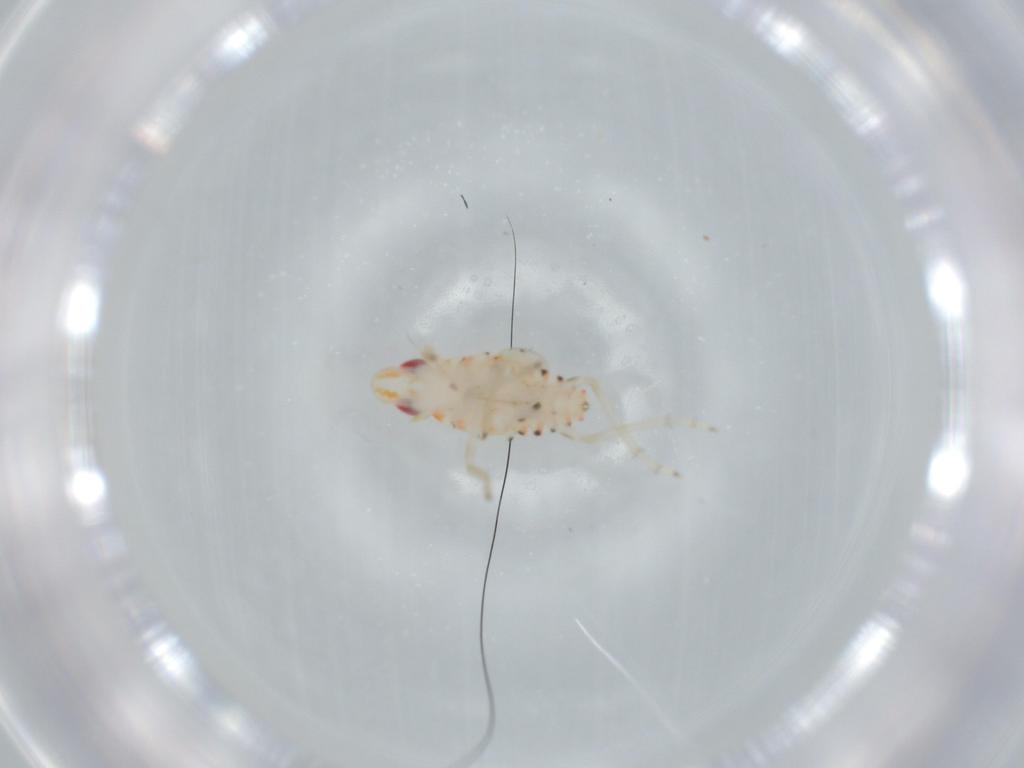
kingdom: Animalia
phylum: Arthropoda
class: Insecta
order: Hemiptera
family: Tropiduchidae
